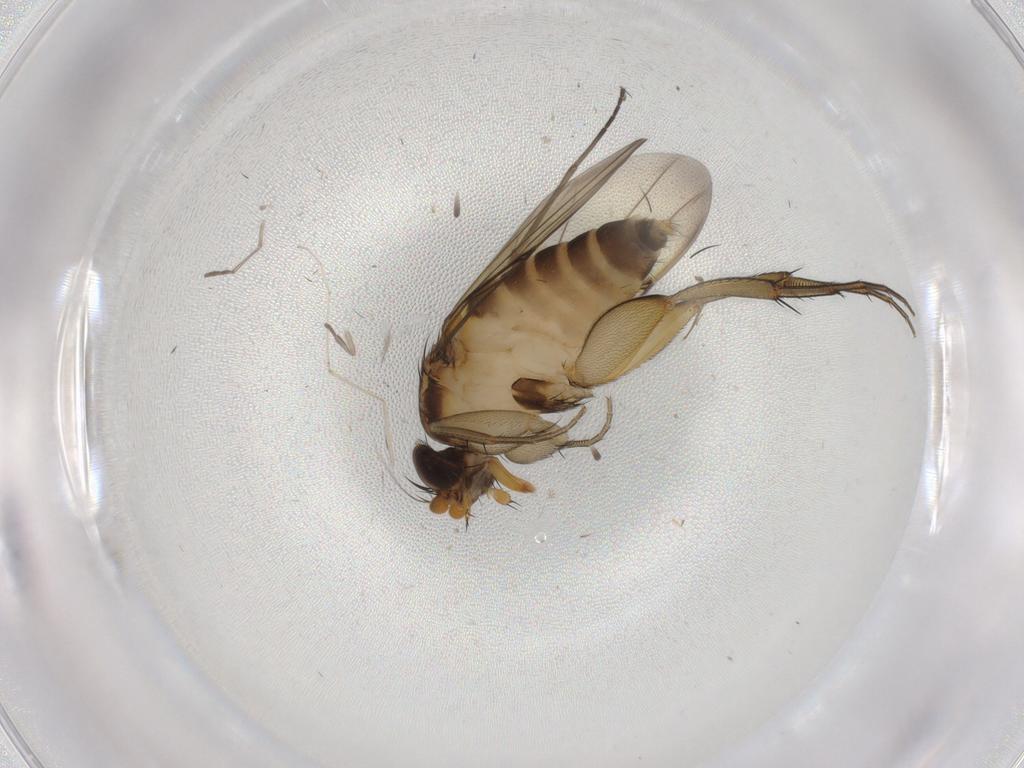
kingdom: Animalia
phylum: Arthropoda
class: Insecta
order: Diptera
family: Phoridae
